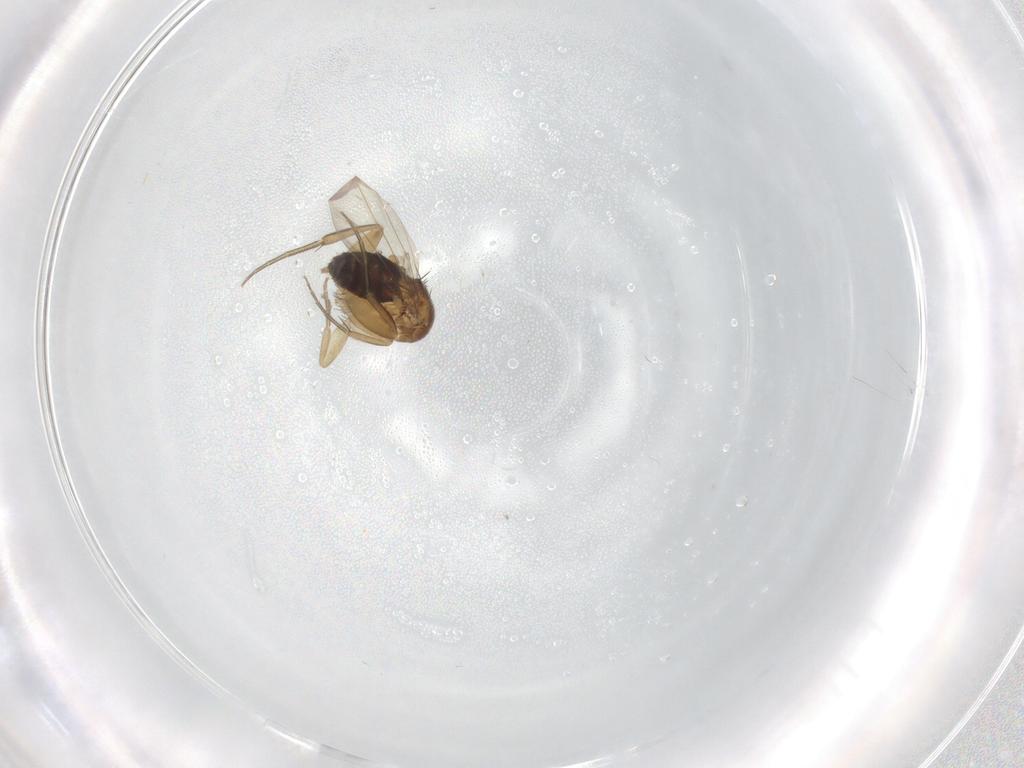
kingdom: Animalia
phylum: Arthropoda
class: Insecta
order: Diptera
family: Phoridae
